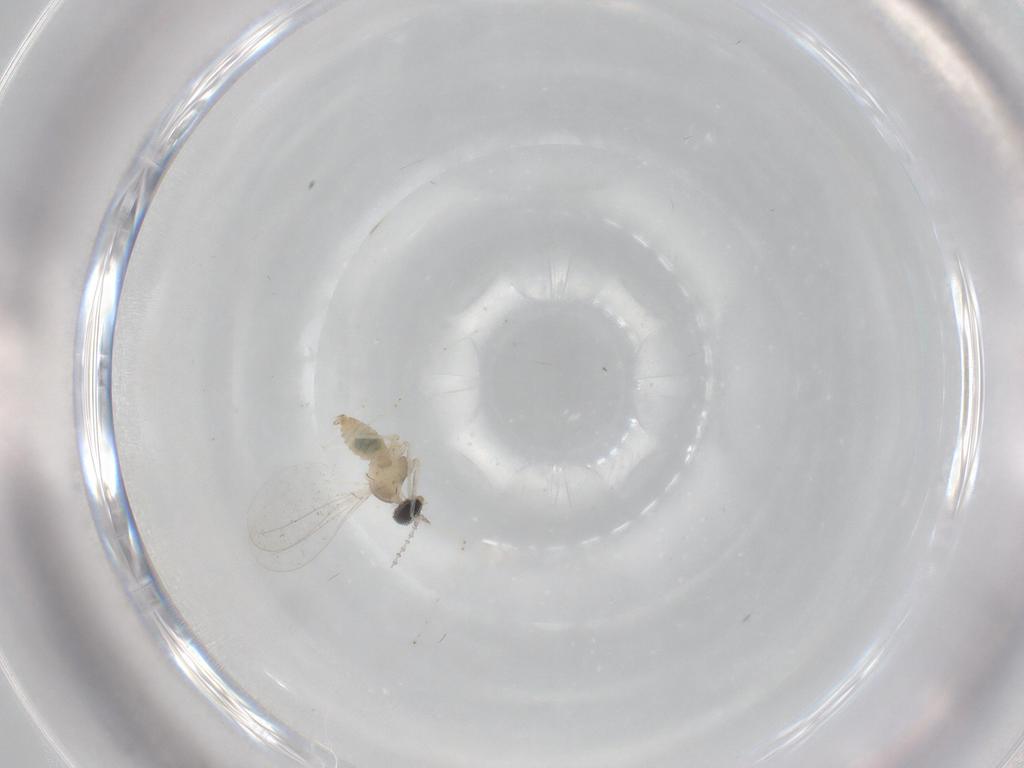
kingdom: Animalia
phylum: Arthropoda
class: Insecta
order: Diptera
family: Cecidomyiidae
